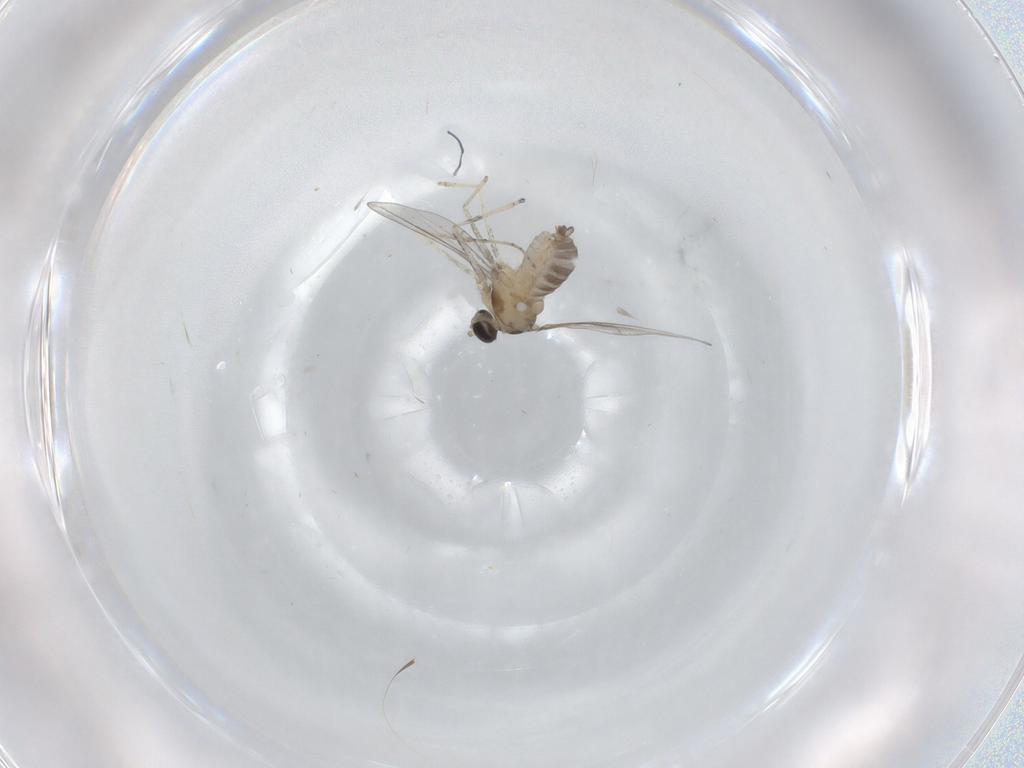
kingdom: Animalia
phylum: Arthropoda
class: Insecta
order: Diptera
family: Cecidomyiidae
